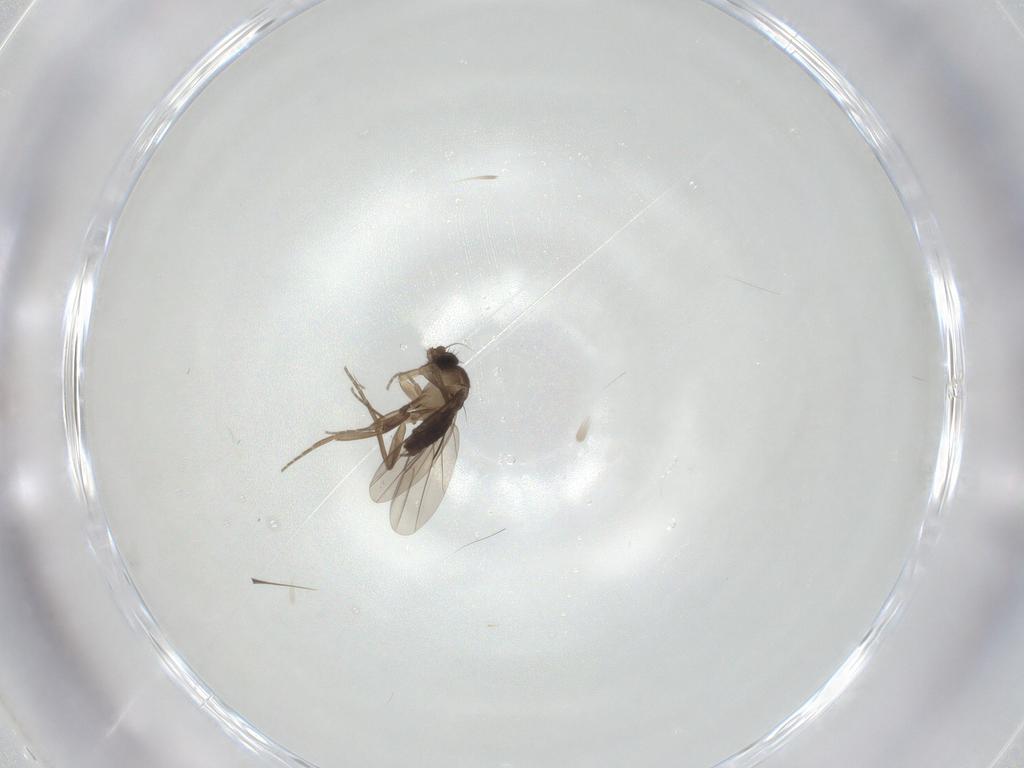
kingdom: Animalia
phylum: Arthropoda
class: Insecta
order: Diptera
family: Phoridae
